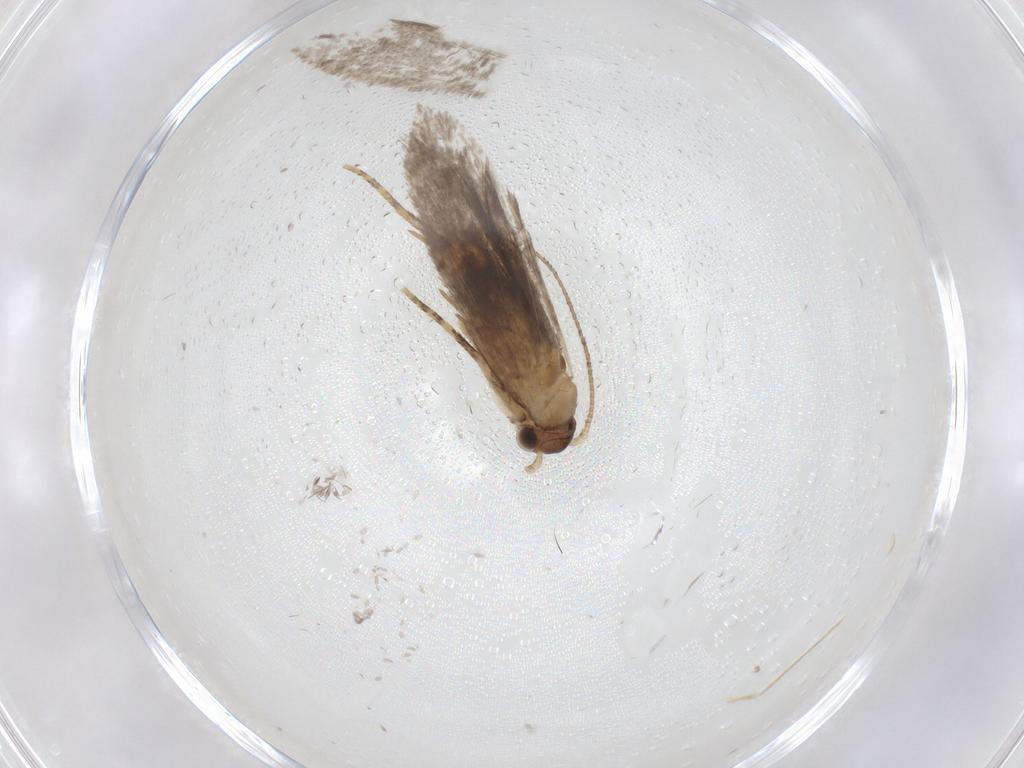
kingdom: Animalia
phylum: Arthropoda
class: Insecta
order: Lepidoptera
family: Dryadaulidae
